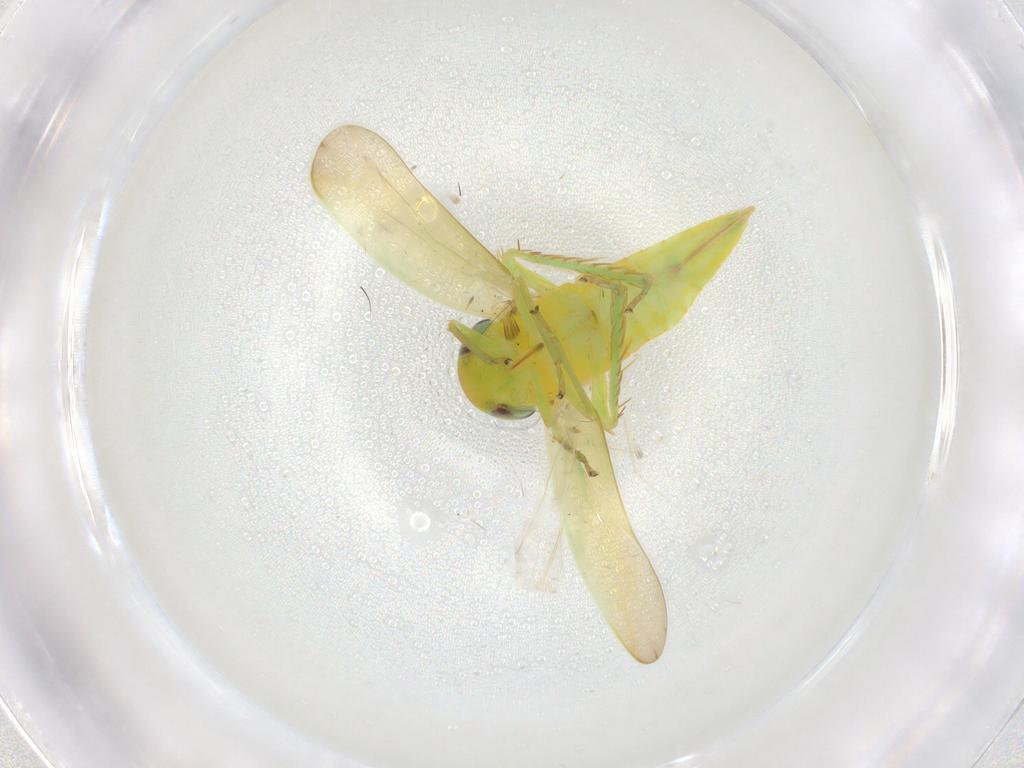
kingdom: Animalia
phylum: Arthropoda
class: Insecta
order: Hemiptera
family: Cicadellidae
